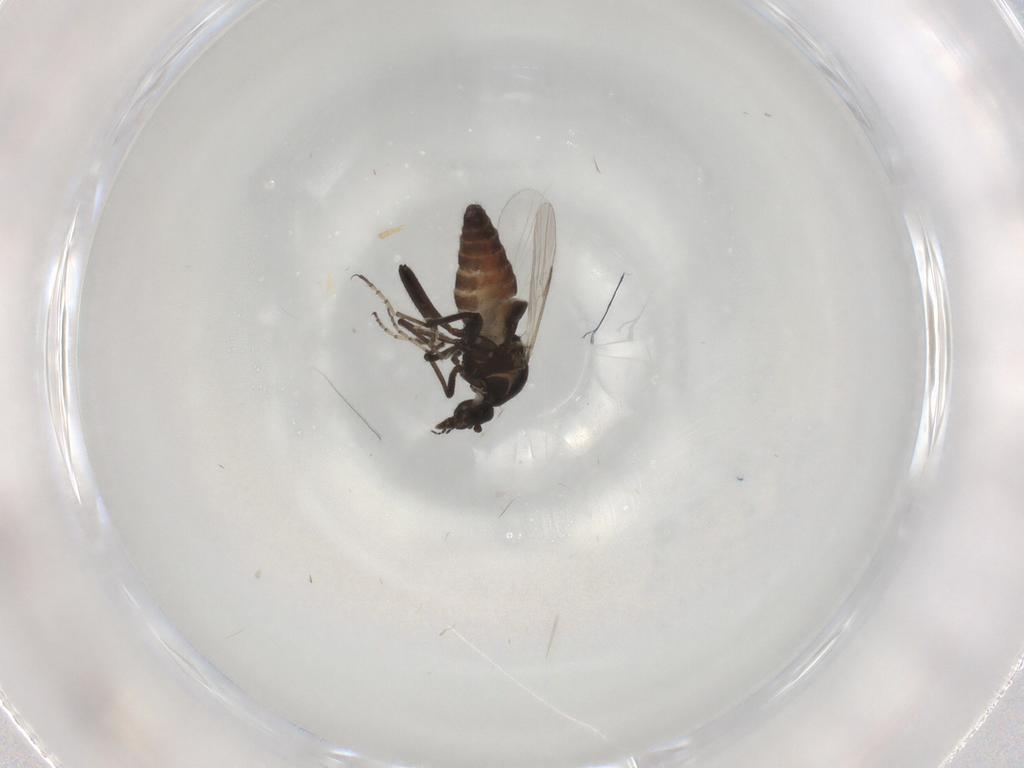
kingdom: Animalia
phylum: Arthropoda
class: Insecta
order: Diptera
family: Ceratopogonidae
